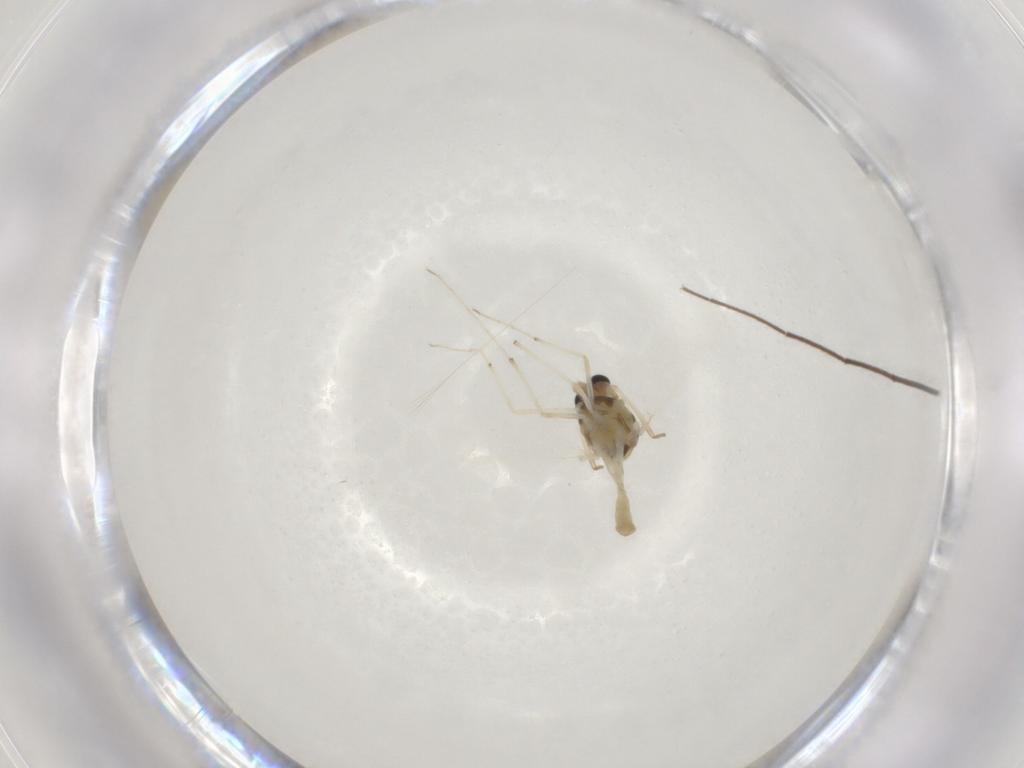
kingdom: Animalia
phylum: Arthropoda
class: Insecta
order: Diptera
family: Chironomidae
